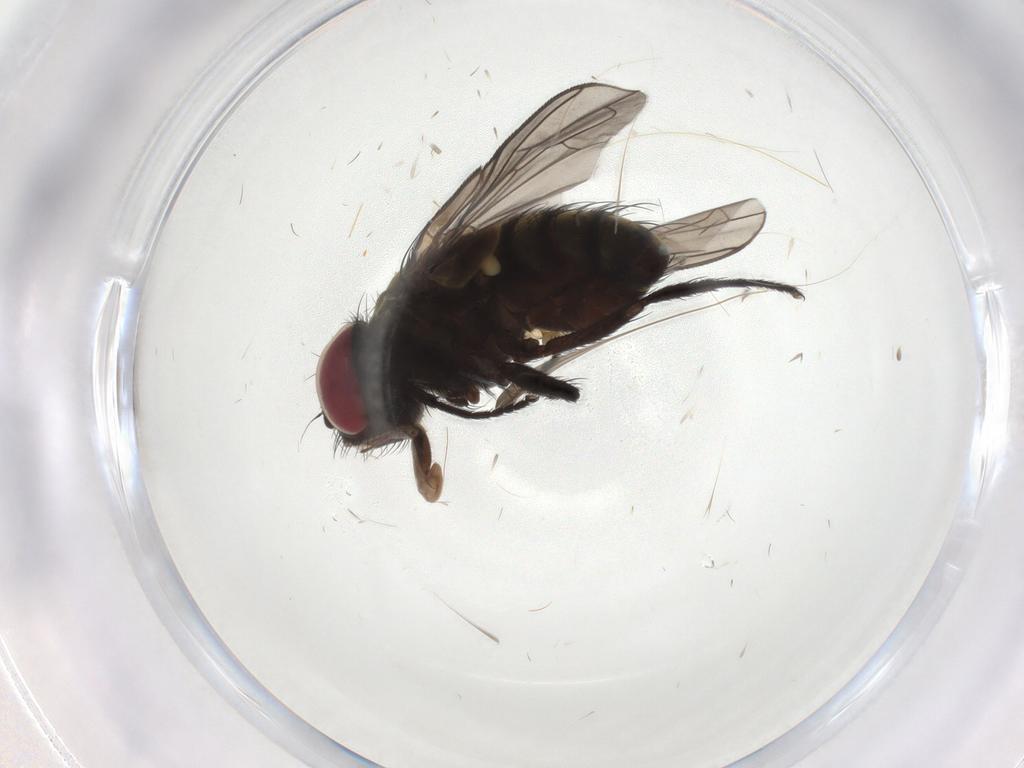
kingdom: Animalia
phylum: Arthropoda
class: Insecta
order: Diptera
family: Tachinidae
